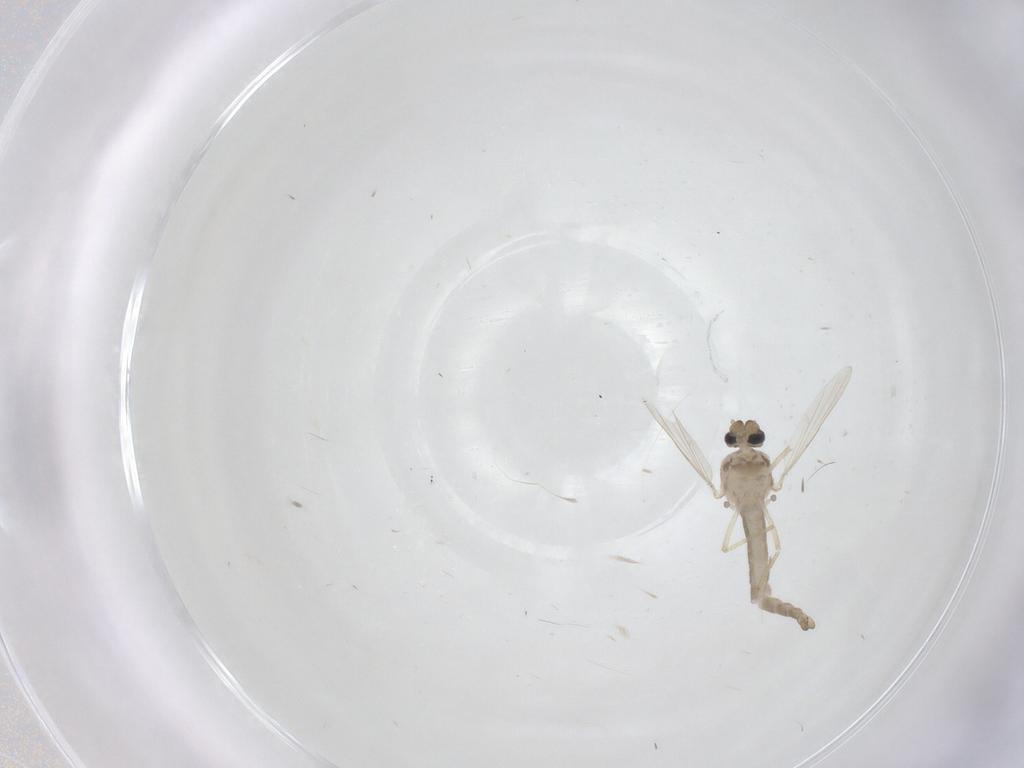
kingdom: Animalia
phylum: Arthropoda
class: Insecta
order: Diptera
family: Ceratopogonidae
